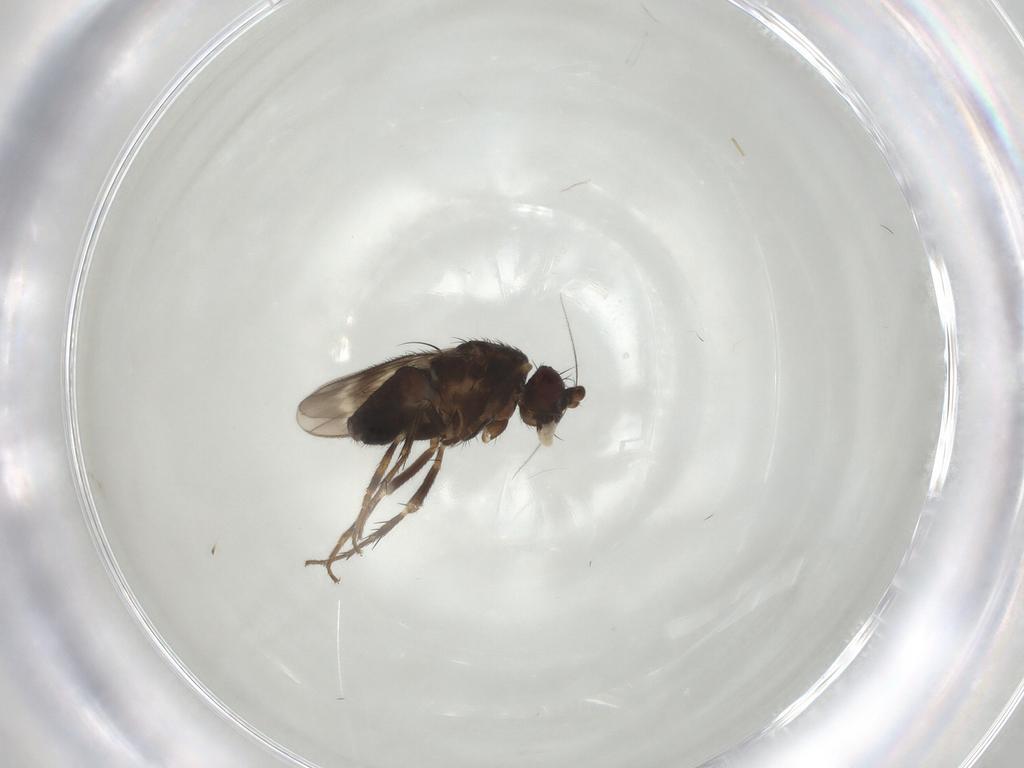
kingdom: Animalia
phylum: Arthropoda
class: Insecta
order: Diptera
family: Sphaeroceridae
